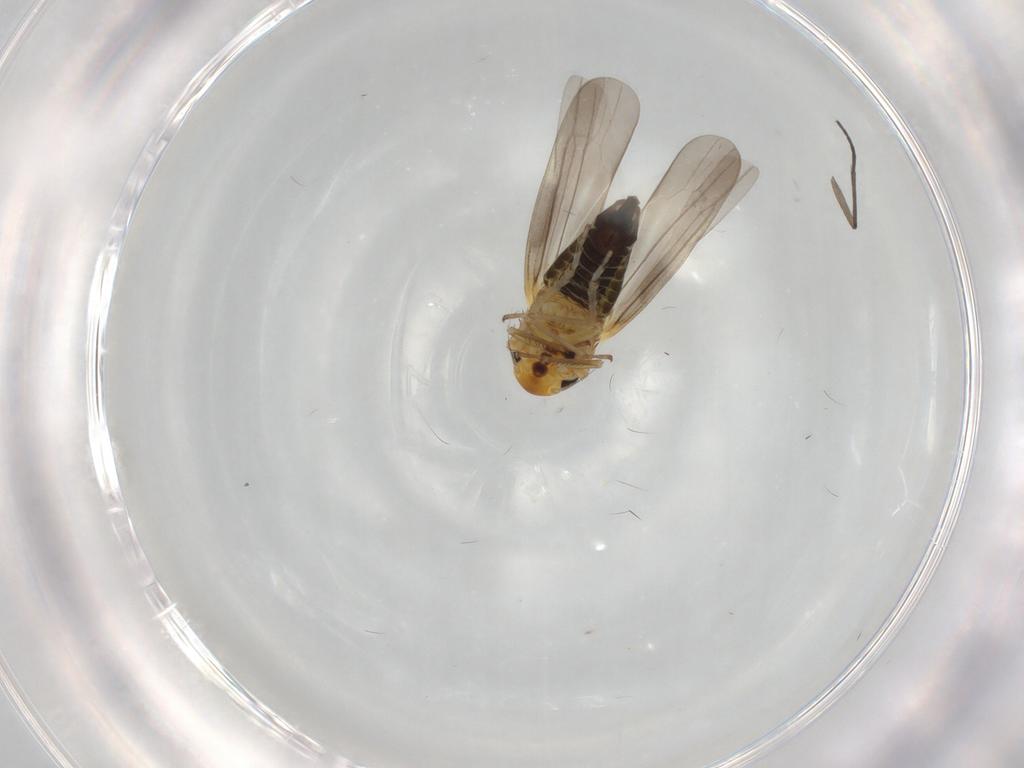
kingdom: Animalia
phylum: Arthropoda
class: Insecta
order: Hemiptera
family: Cicadellidae
